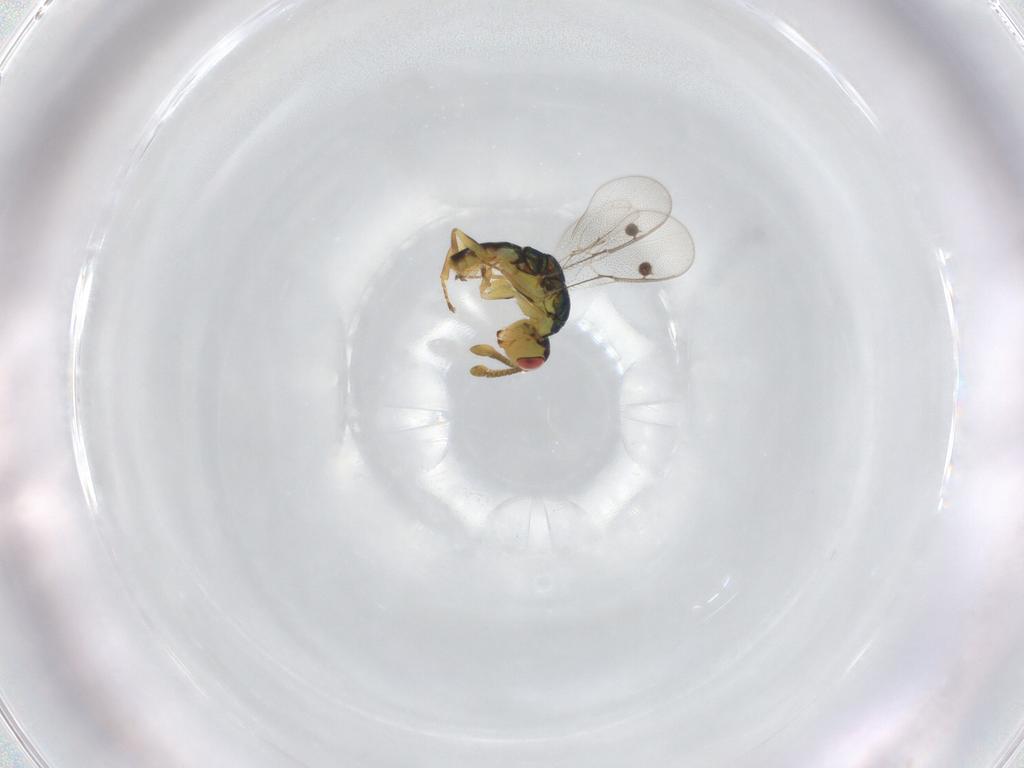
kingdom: Animalia
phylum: Arthropoda
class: Insecta
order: Hymenoptera
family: Megastigmidae
